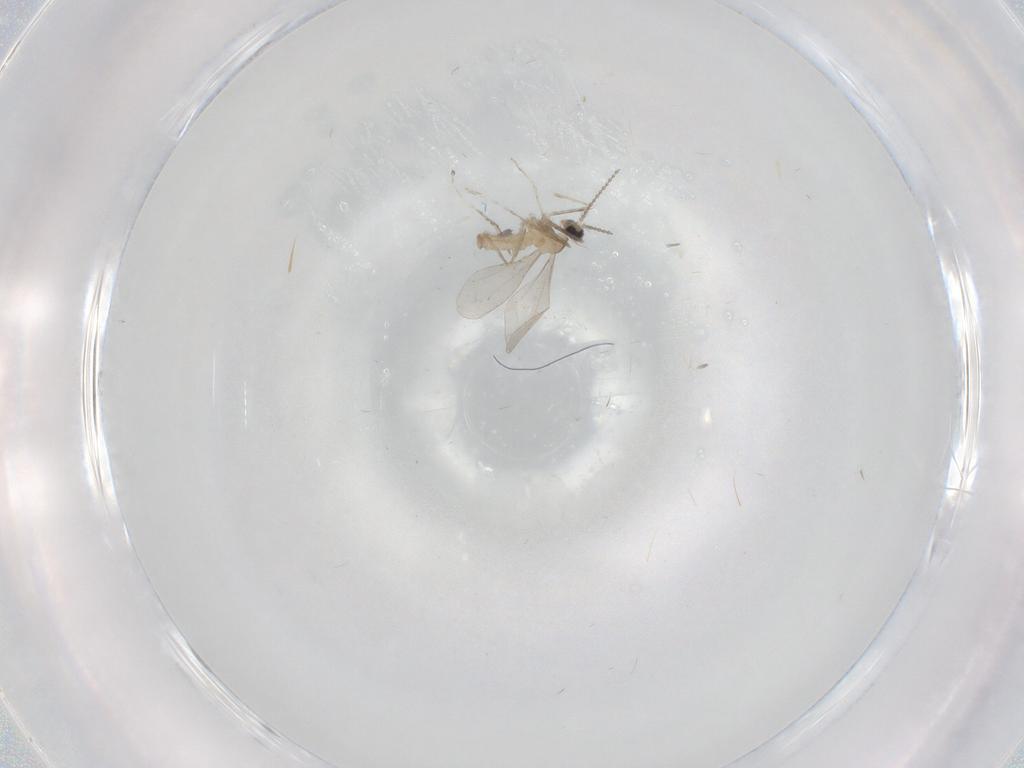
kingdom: Animalia
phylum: Arthropoda
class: Insecta
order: Diptera
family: Cecidomyiidae
